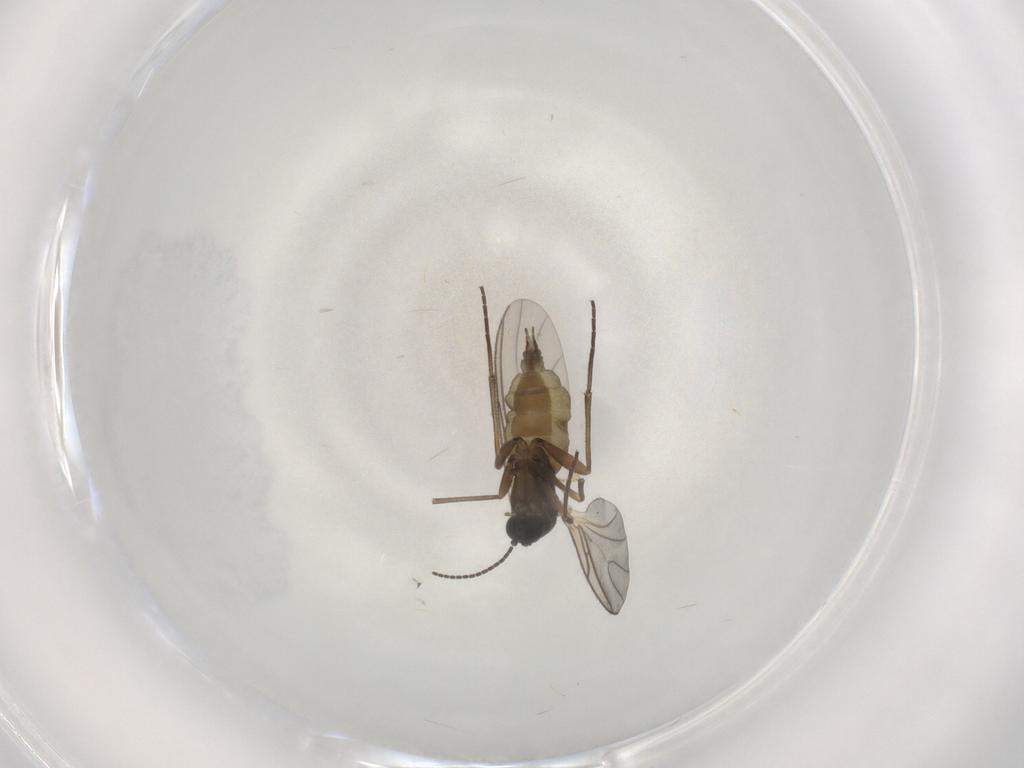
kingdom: Animalia
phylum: Arthropoda
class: Insecta
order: Diptera
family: Sciaridae
